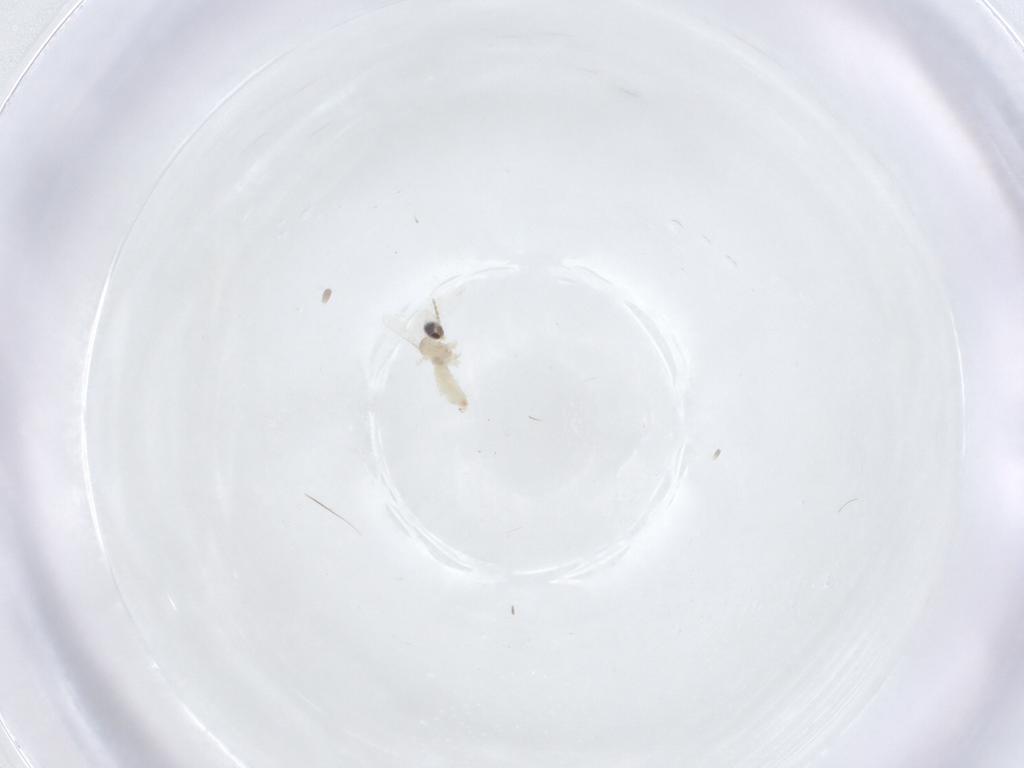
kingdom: Animalia
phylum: Arthropoda
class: Insecta
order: Diptera
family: Cecidomyiidae
